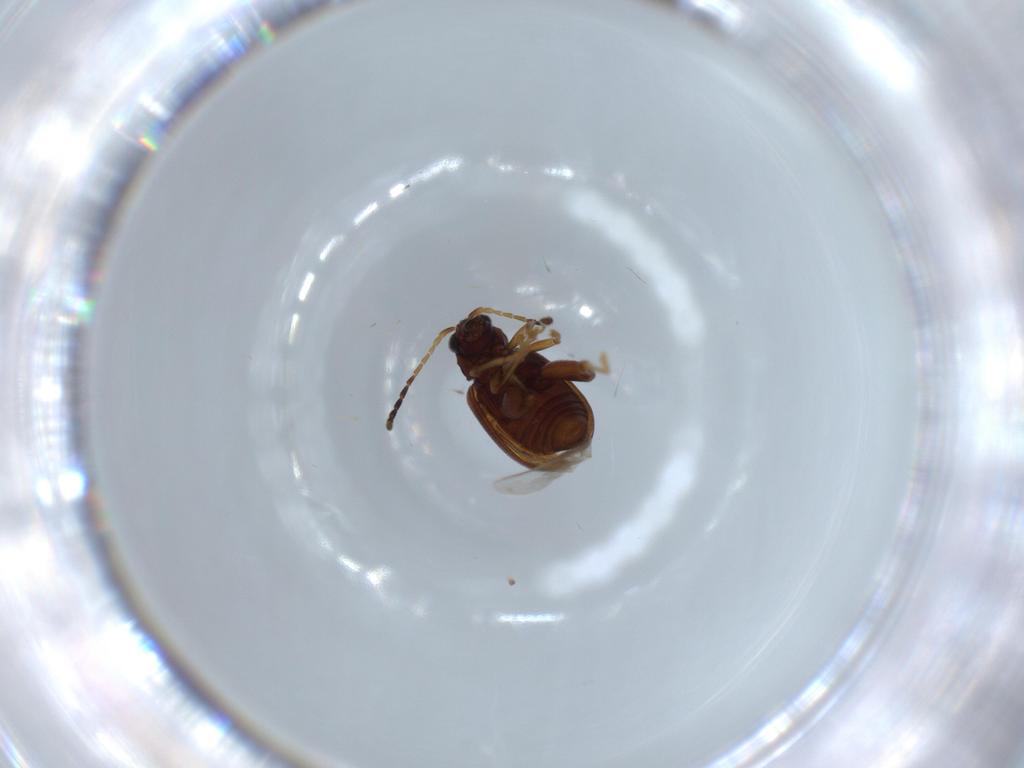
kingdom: Animalia
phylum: Arthropoda
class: Insecta
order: Coleoptera
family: Chrysomelidae
